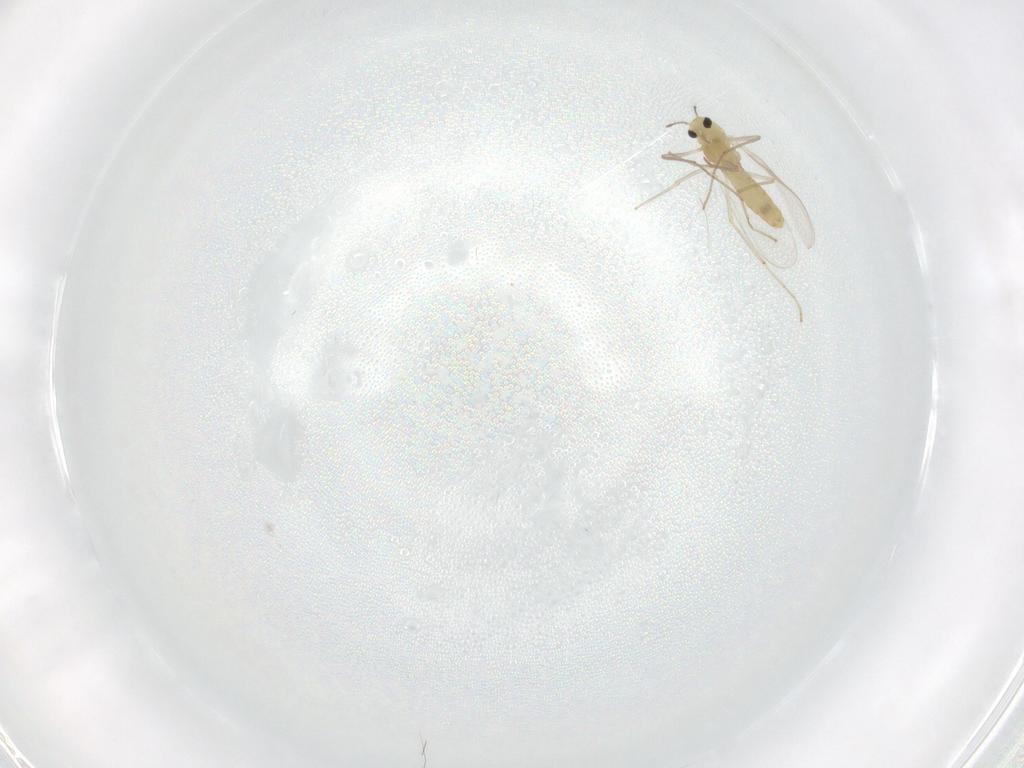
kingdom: Animalia
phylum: Arthropoda
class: Insecta
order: Diptera
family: Chironomidae
